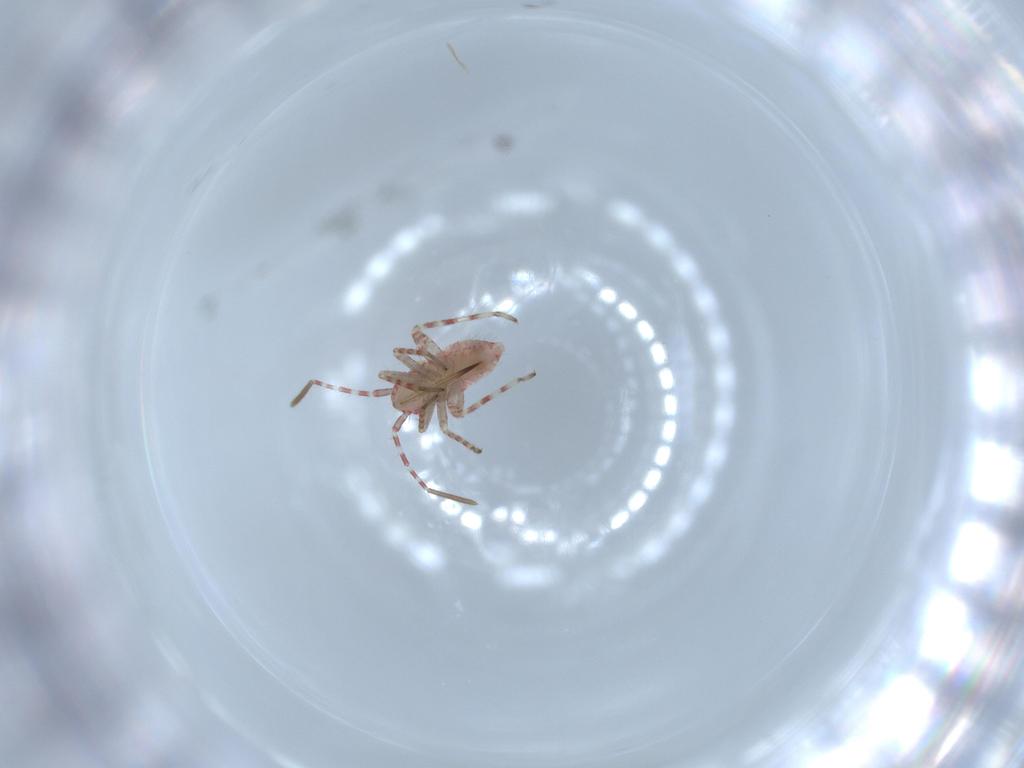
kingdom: Animalia
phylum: Arthropoda
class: Insecta
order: Hemiptera
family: Miridae
